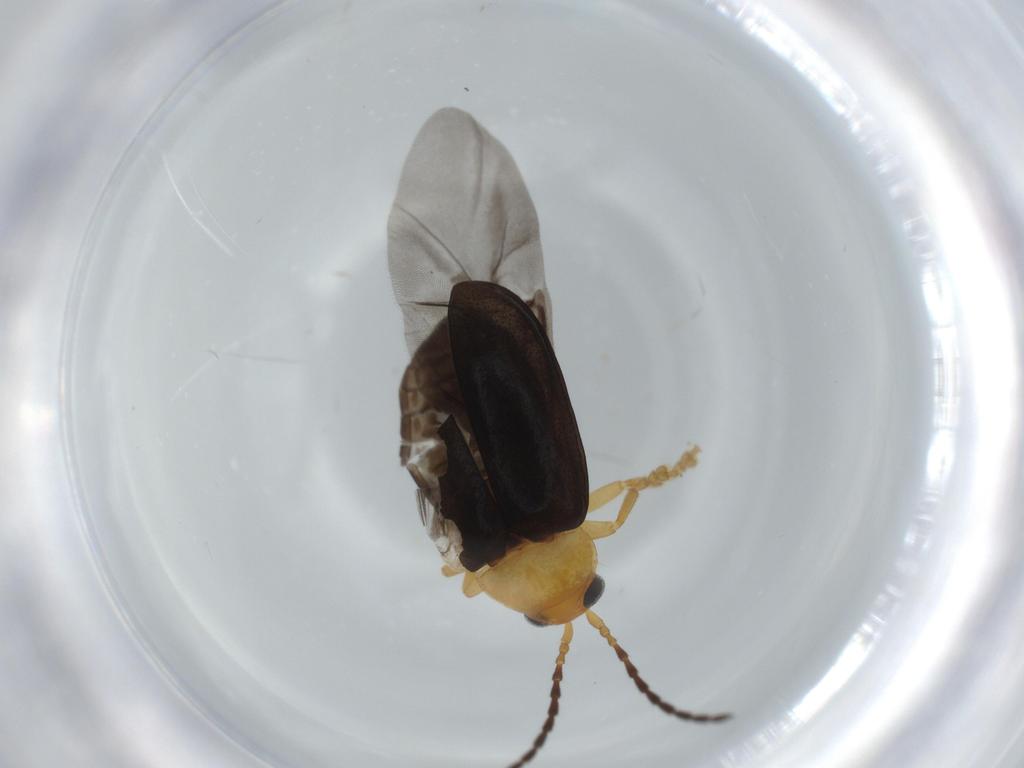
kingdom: Animalia
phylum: Arthropoda
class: Insecta
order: Coleoptera
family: Chrysomelidae
